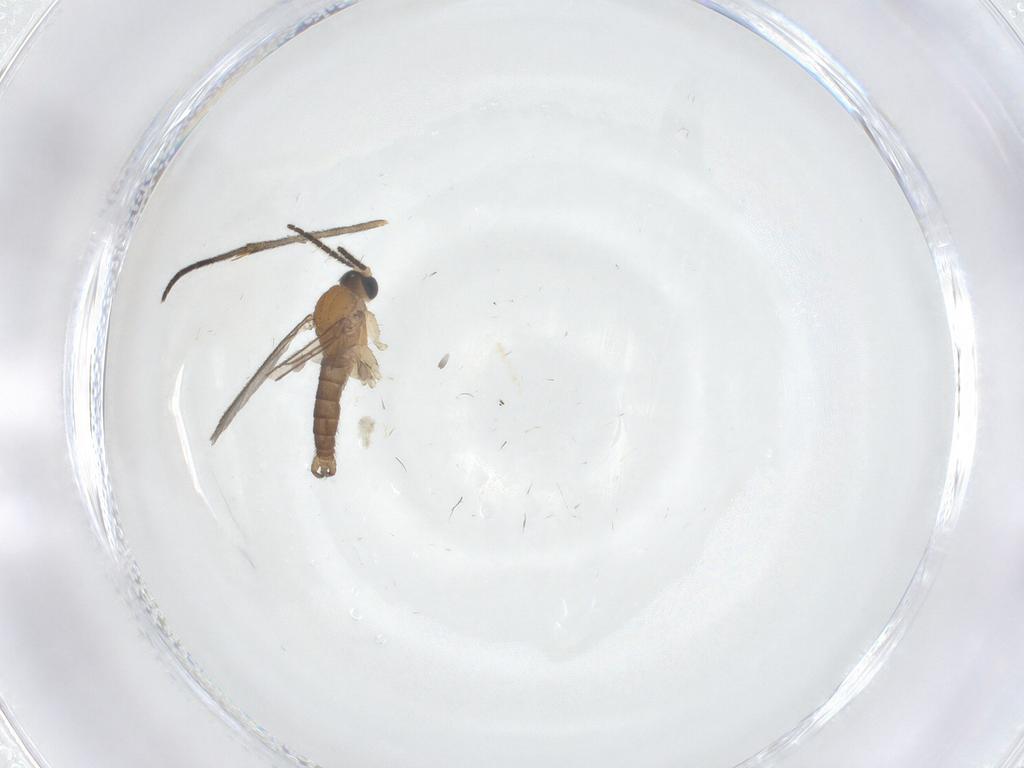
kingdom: Animalia
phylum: Arthropoda
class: Insecta
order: Diptera
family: Sciaridae
